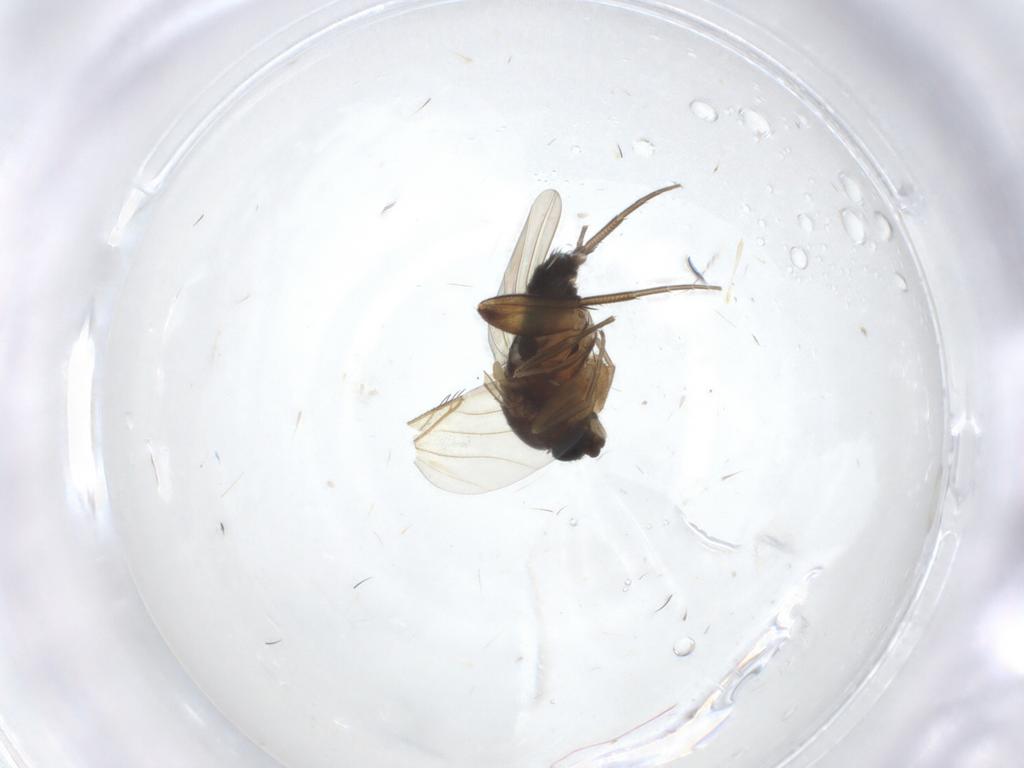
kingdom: Animalia
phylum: Arthropoda
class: Insecta
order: Diptera
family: Phoridae
